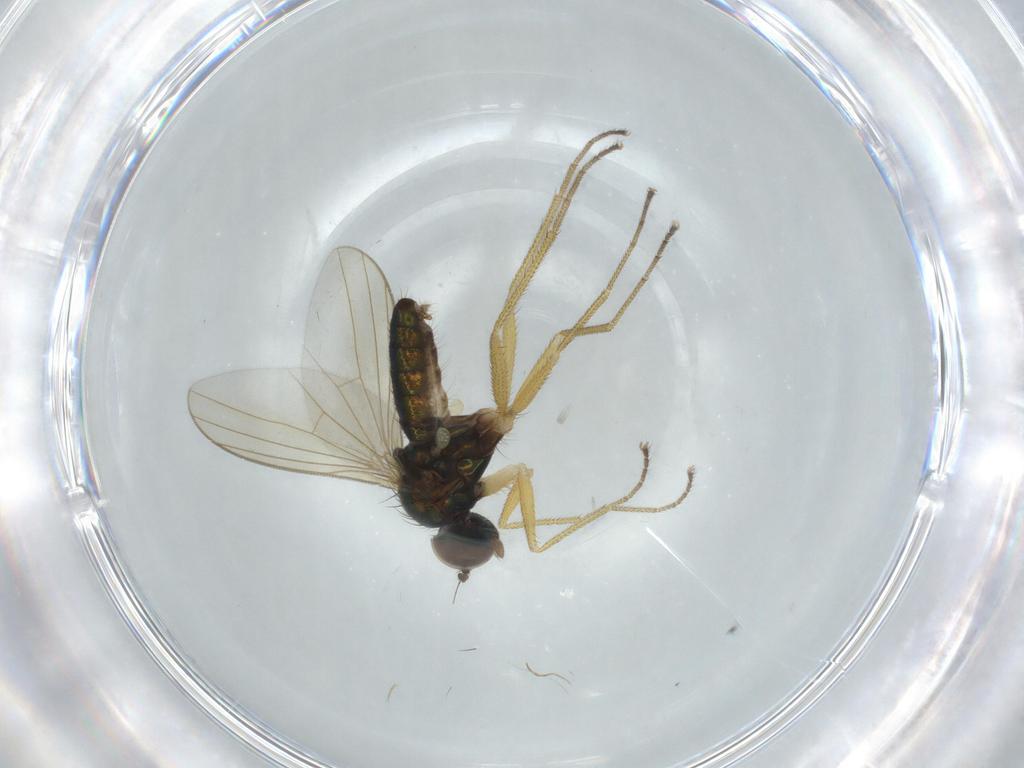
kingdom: Animalia
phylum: Arthropoda
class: Insecta
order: Diptera
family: Dolichopodidae
